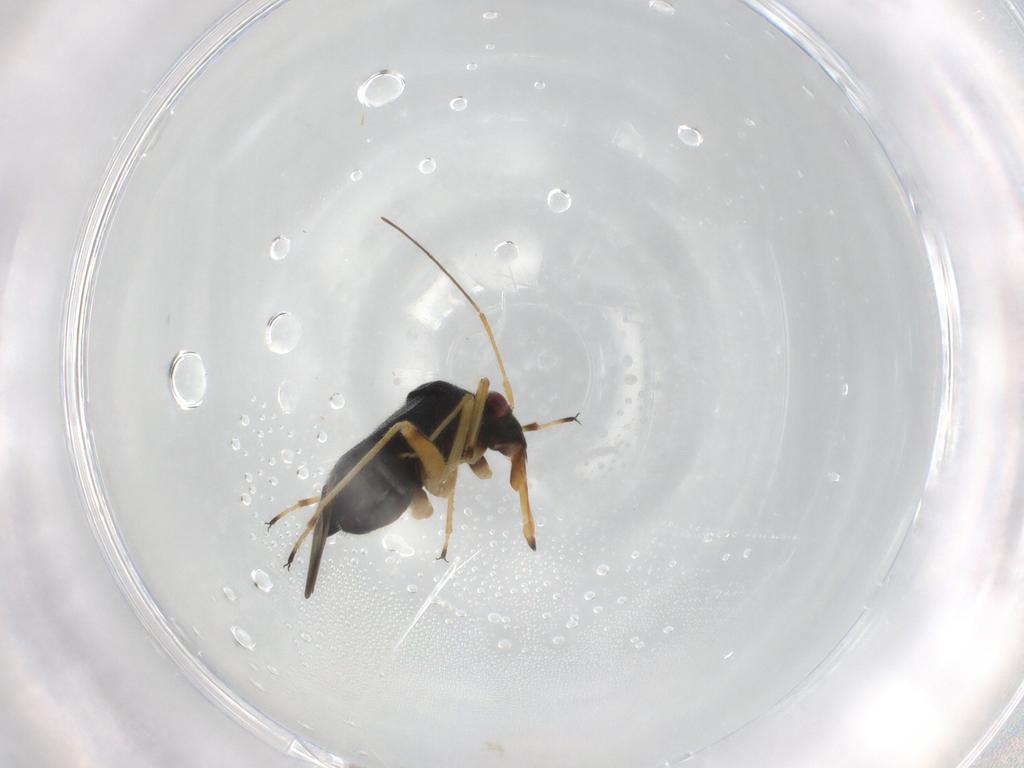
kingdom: Animalia
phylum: Arthropoda
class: Insecta
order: Hemiptera
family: Miridae
